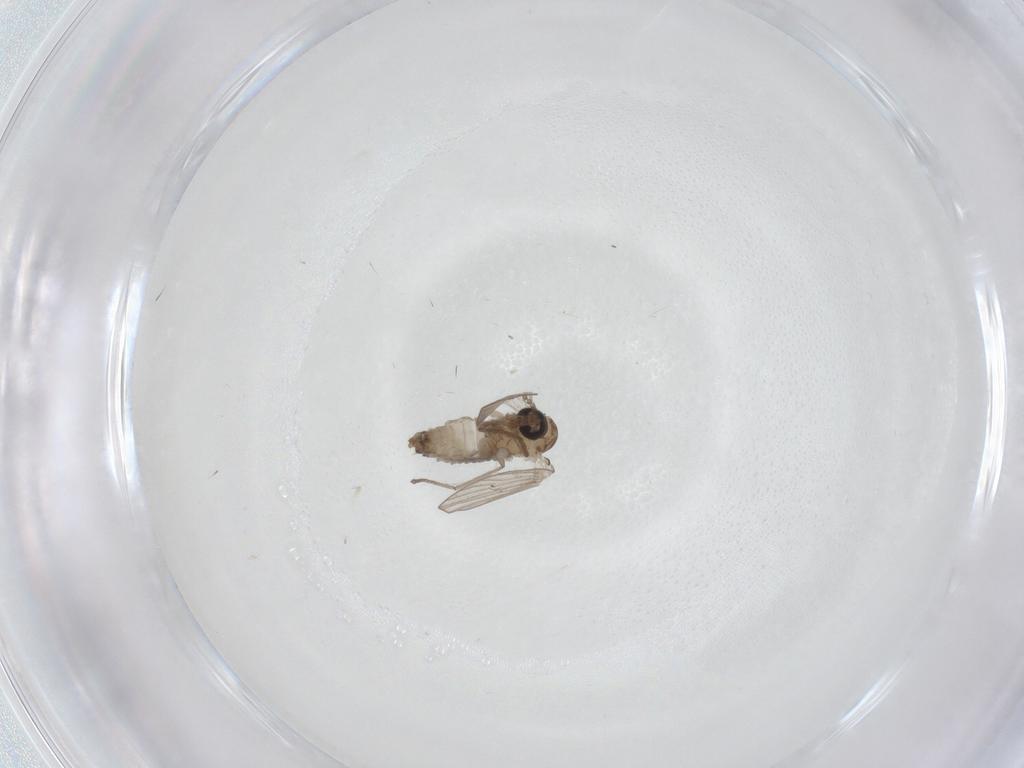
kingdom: Animalia
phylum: Arthropoda
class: Insecta
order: Diptera
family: Psychodidae
